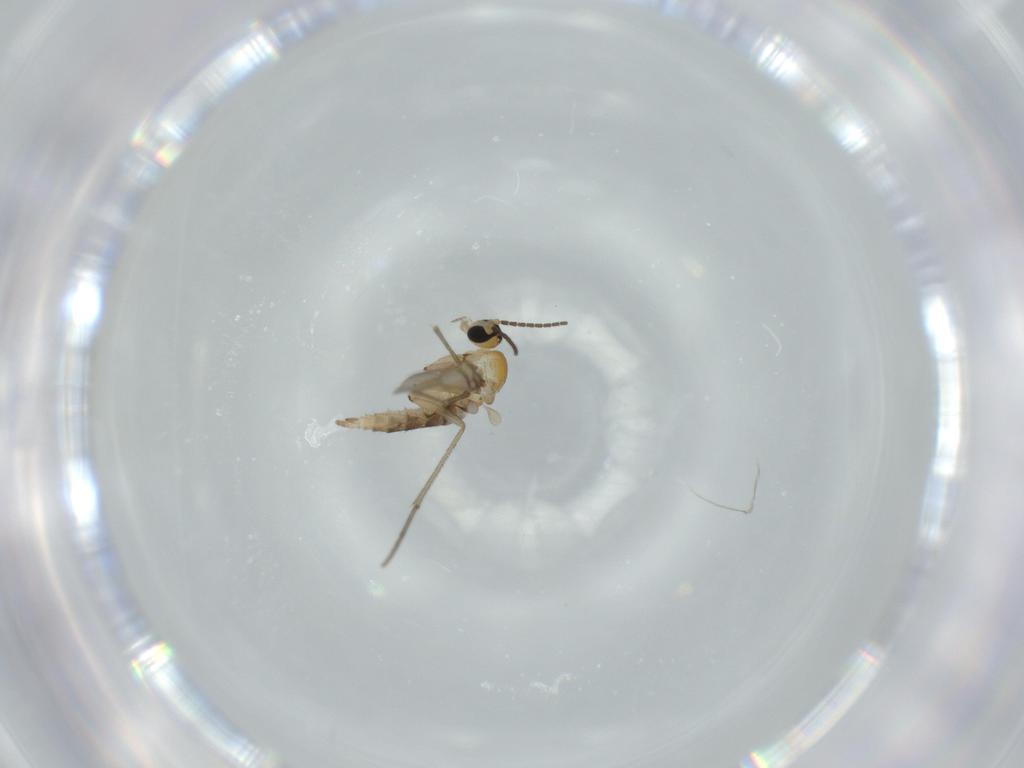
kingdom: Animalia
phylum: Arthropoda
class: Insecta
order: Diptera
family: Sciaridae
